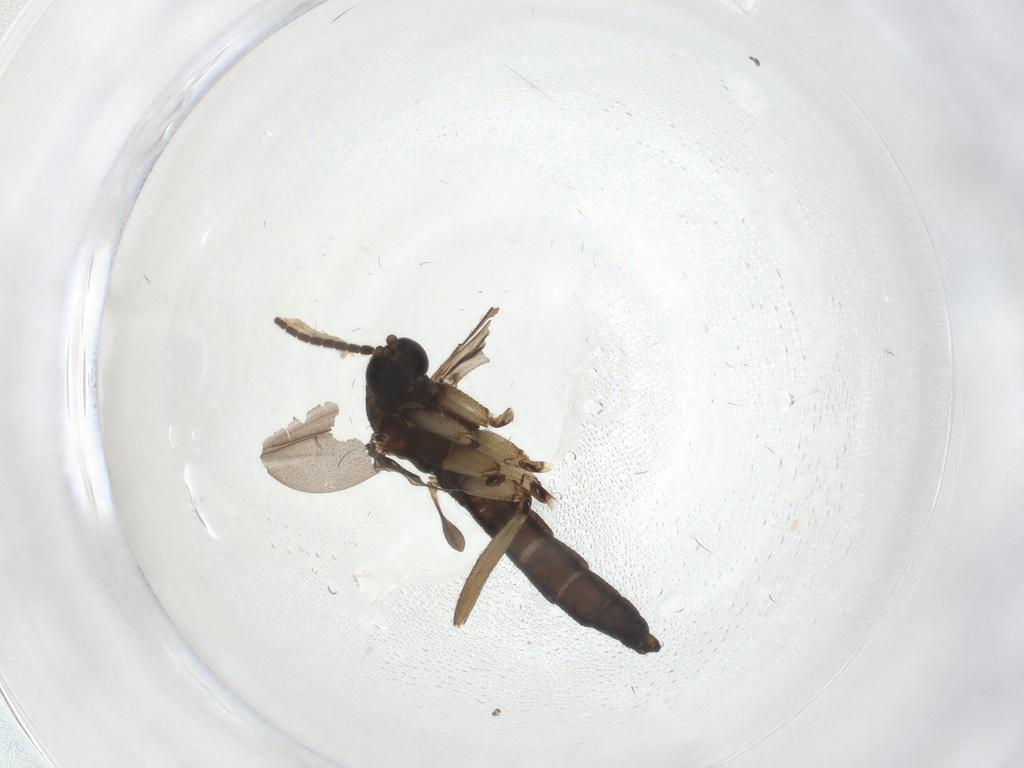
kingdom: Animalia
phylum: Arthropoda
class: Insecta
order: Diptera
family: Sciaridae
